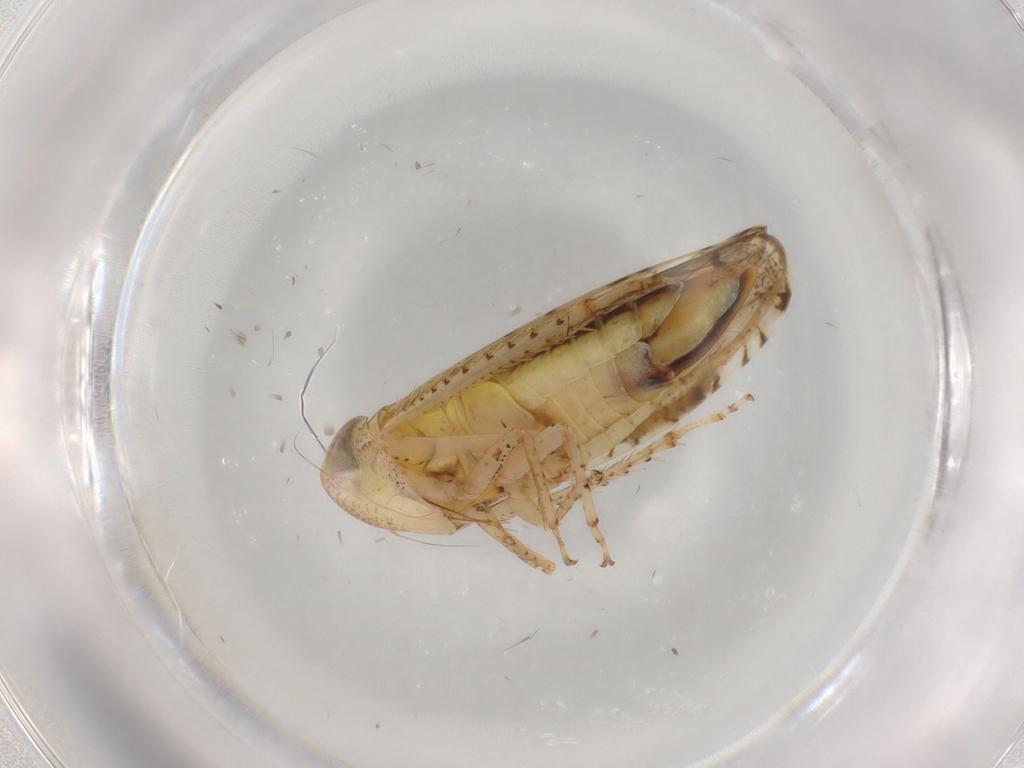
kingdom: Animalia
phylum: Arthropoda
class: Insecta
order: Hemiptera
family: Cicadellidae
